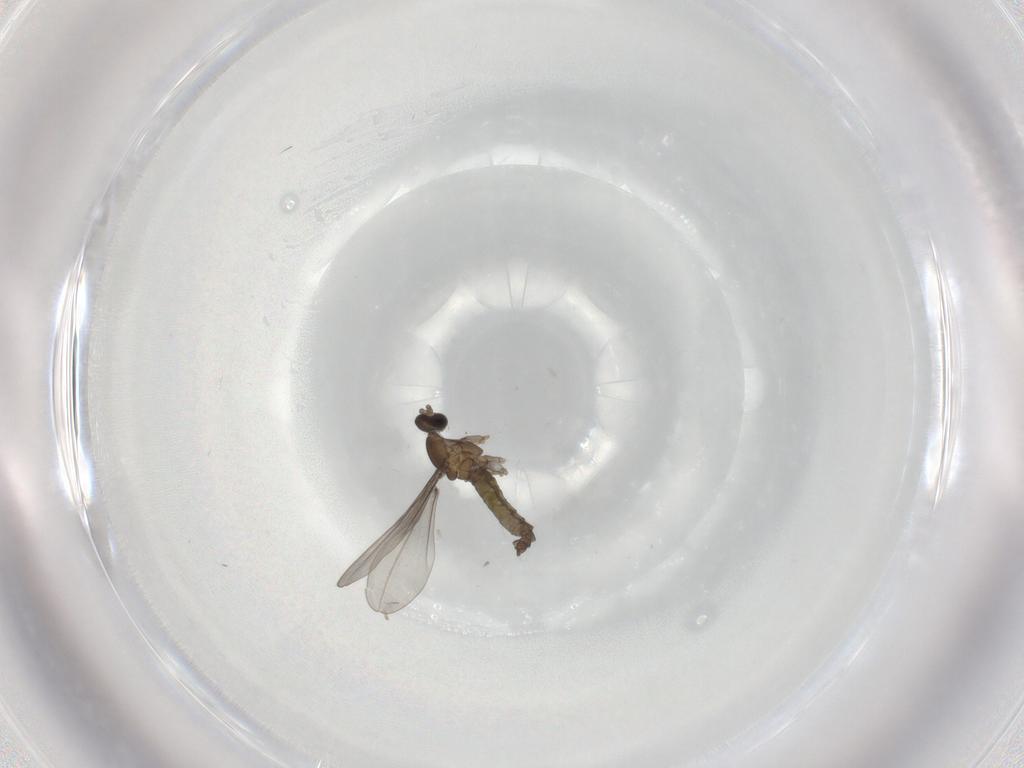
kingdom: Animalia
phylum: Arthropoda
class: Insecta
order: Diptera
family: Cecidomyiidae
